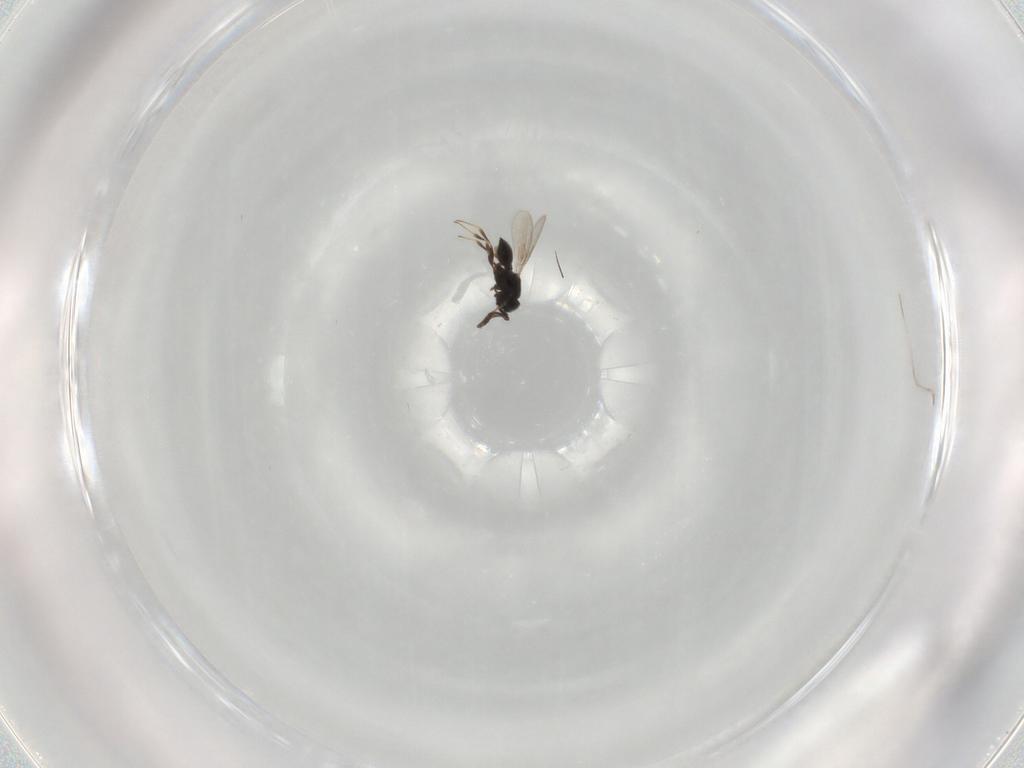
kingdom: Animalia
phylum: Arthropoda
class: Insecta
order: Hymenoptera
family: Scelionidae
